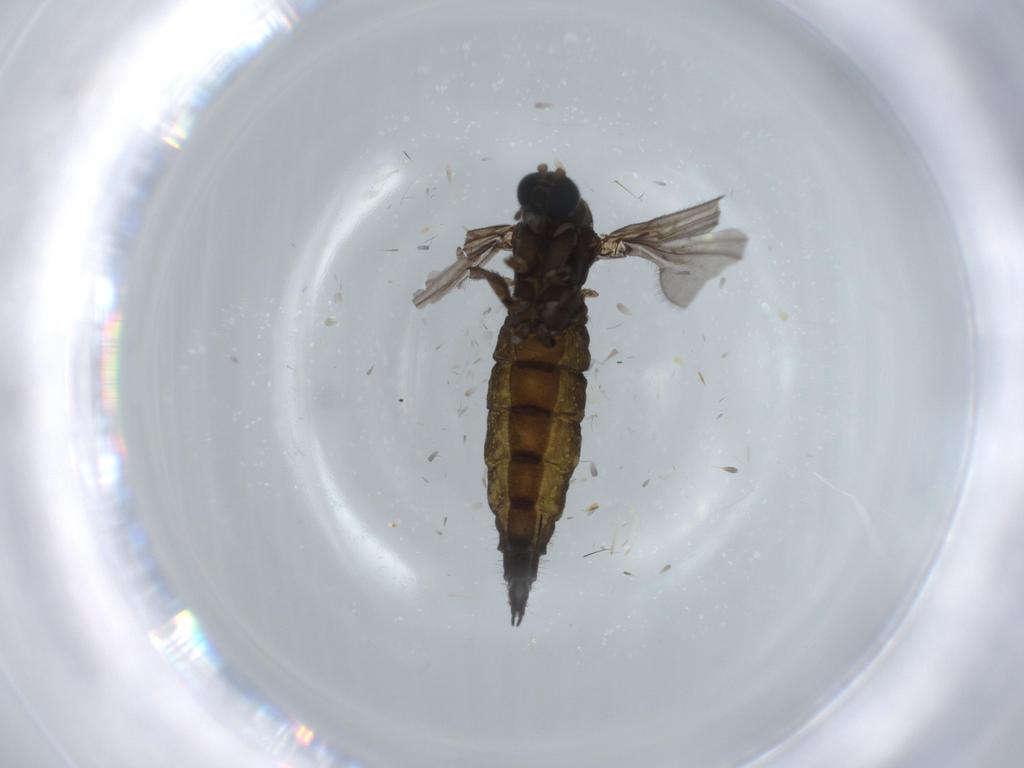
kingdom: Animalia
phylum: Arthropoda
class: Insecta
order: Diptera
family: Sciaridae
